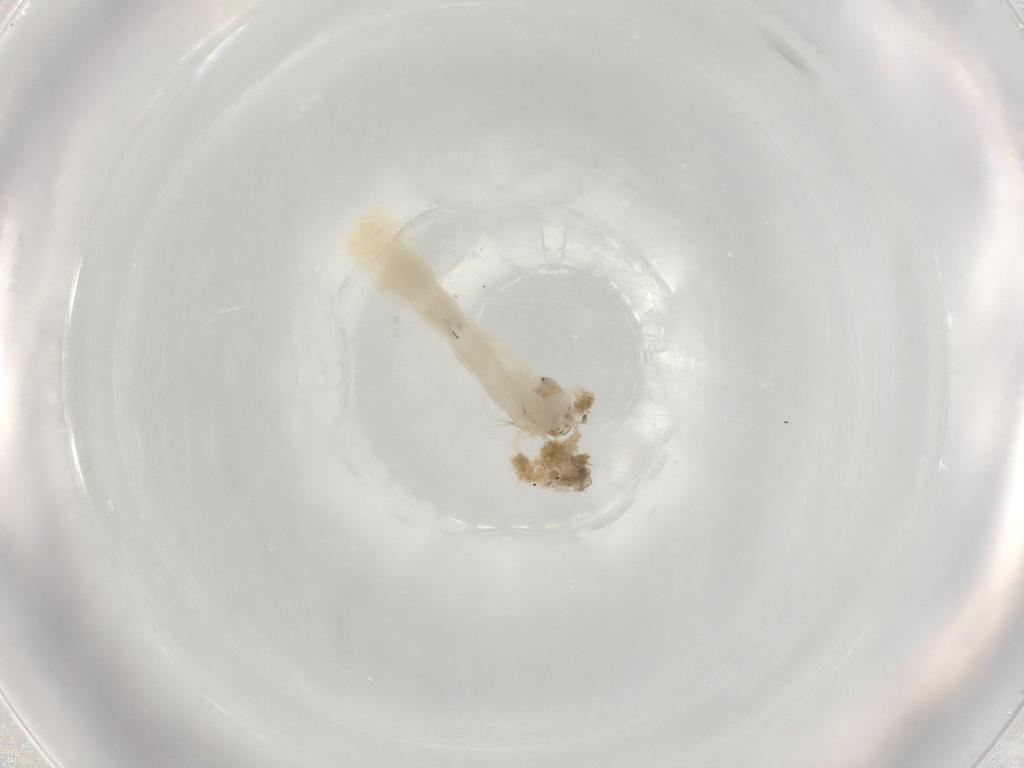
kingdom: Animalia
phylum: Arthropoda
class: Insecta
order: Diptera
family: Chironomidae
